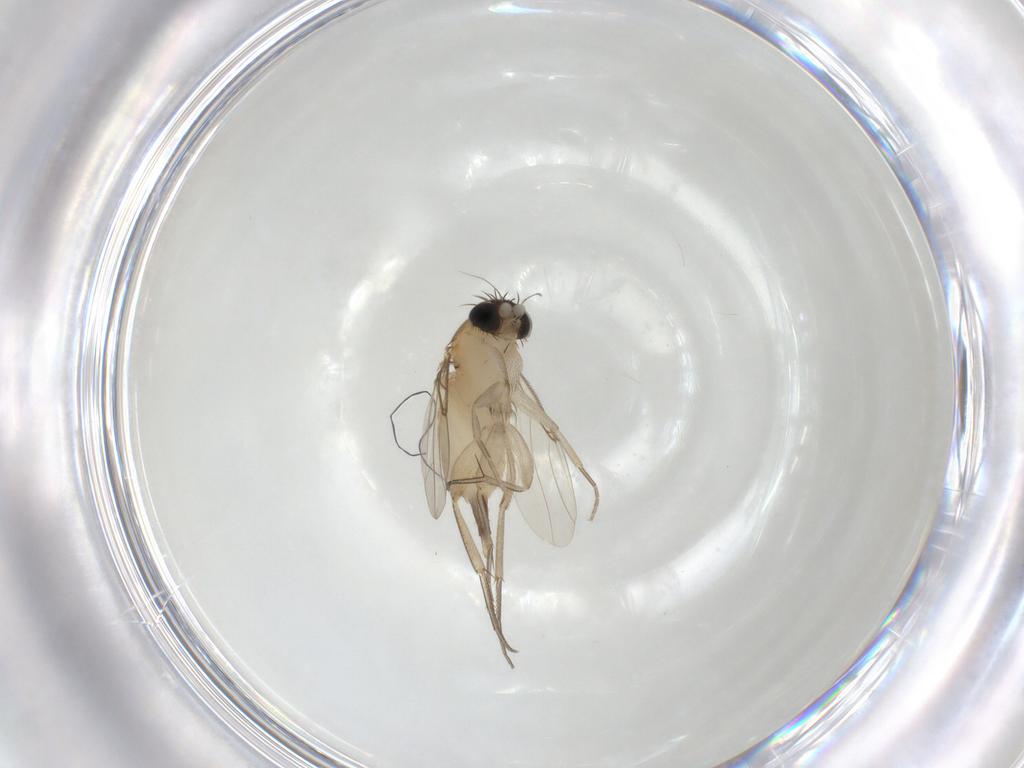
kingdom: Animalia
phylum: Arthropoda
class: Insecta
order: Diptera
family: Phoridae
